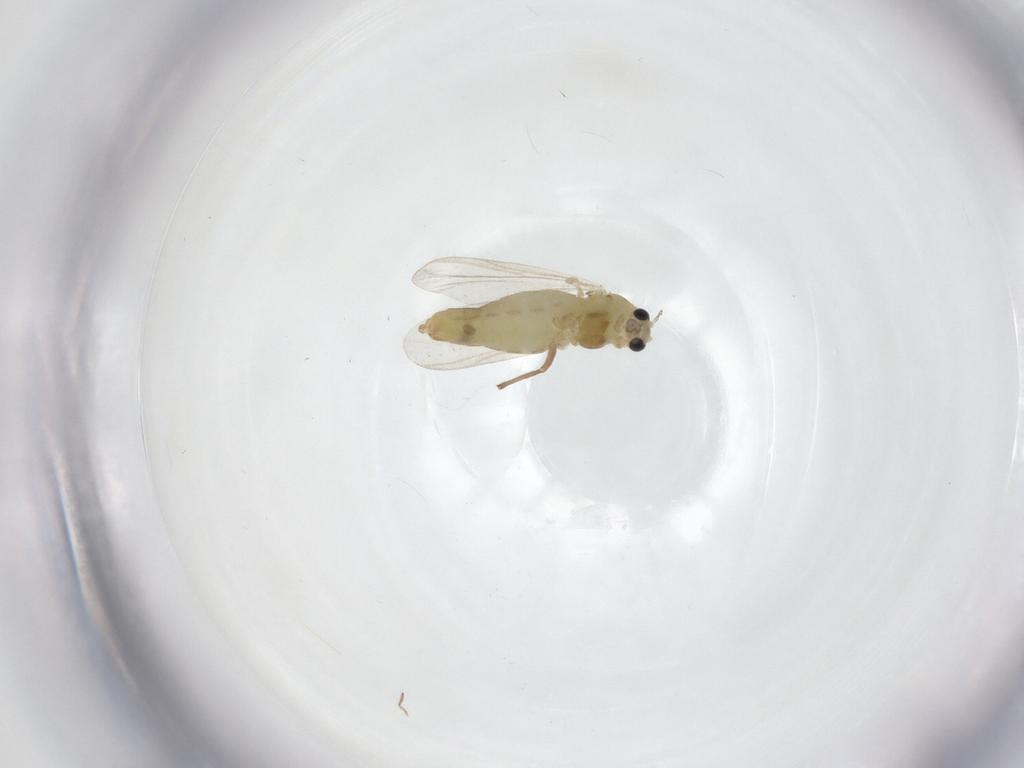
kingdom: Animalia
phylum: Arthropoda
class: Insecta
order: Diptera
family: Chironomidae
